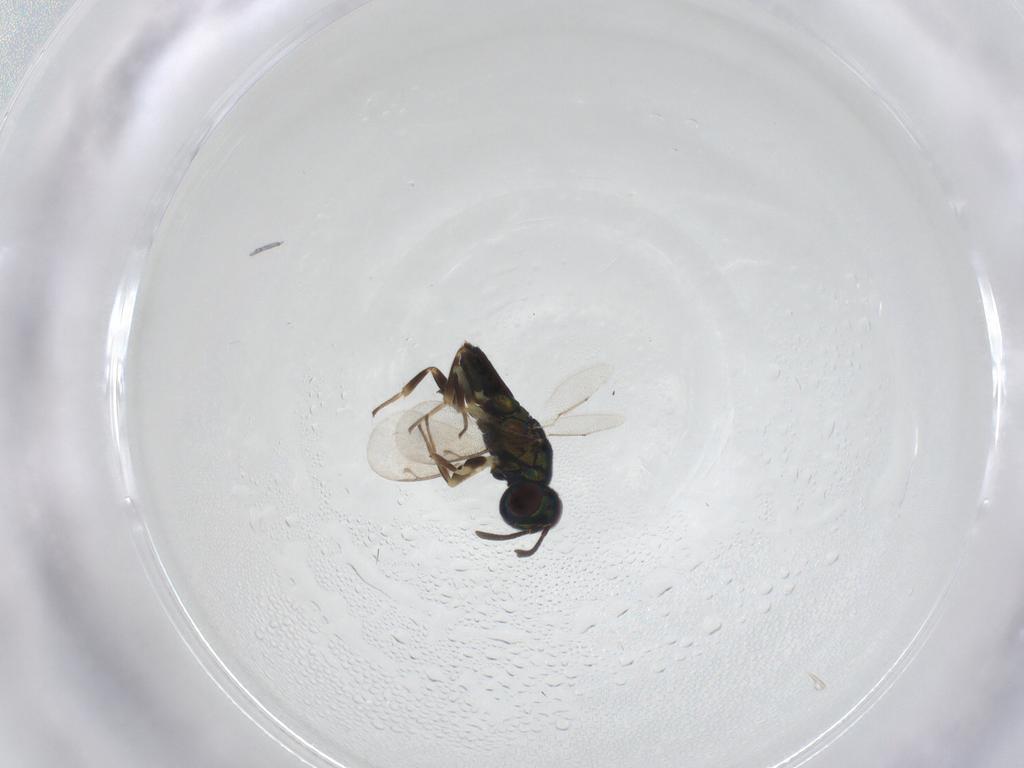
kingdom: Animalia
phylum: Arthropoda
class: Insecta
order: Hymenoptera
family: Eupelmidae
